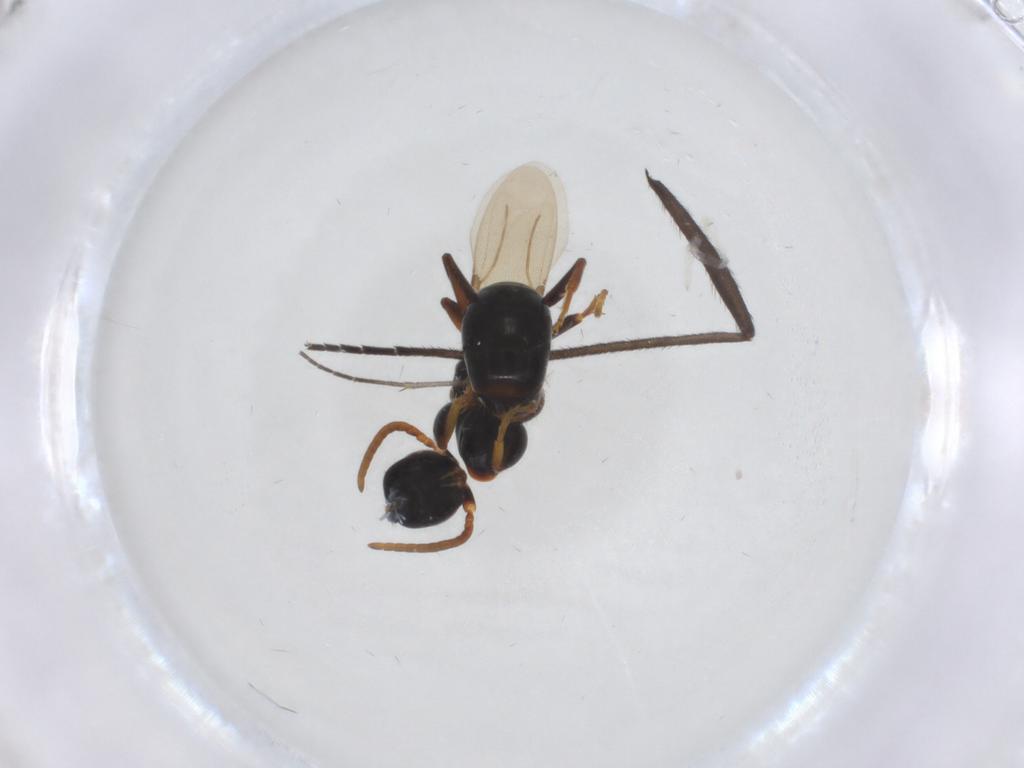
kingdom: Animalia
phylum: Arthropoda
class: Insecta
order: Hymenoptera
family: Bethylidae
